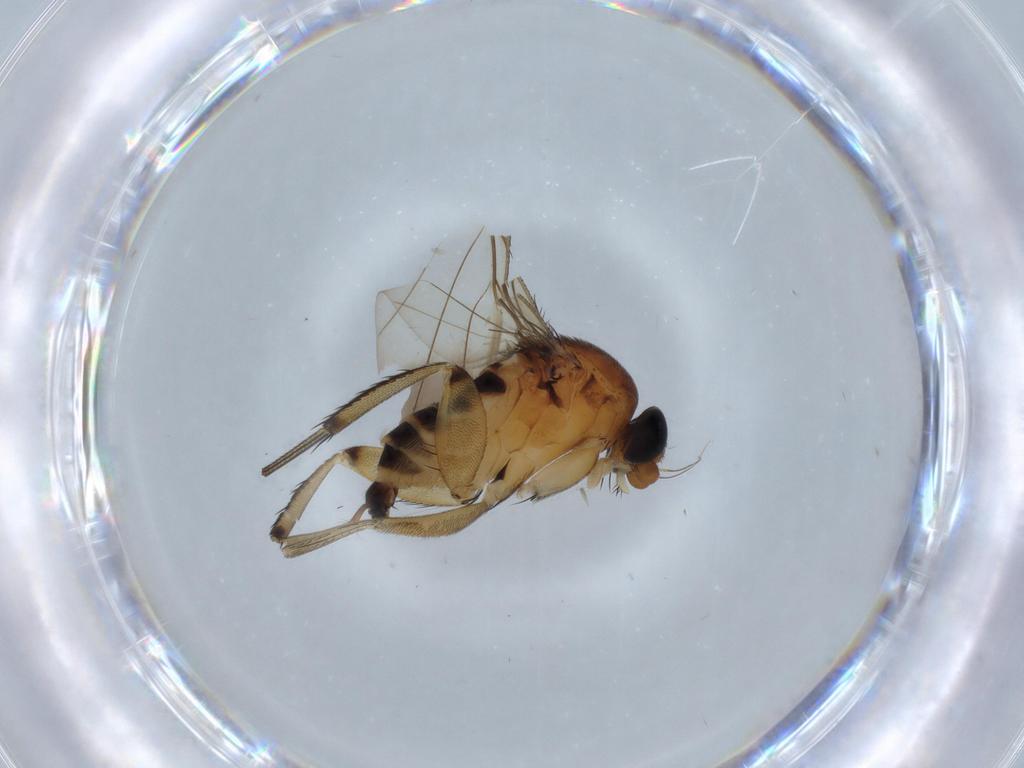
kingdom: Animalia
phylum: Arthropoda
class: Insecta
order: Diptera
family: Phoridae
